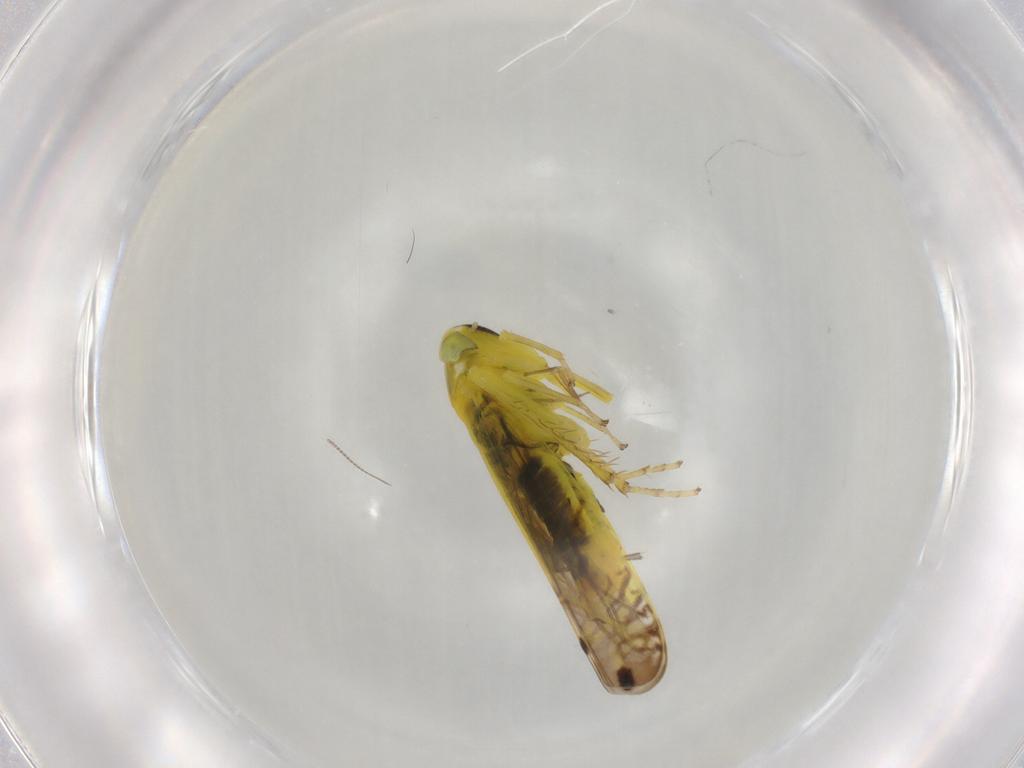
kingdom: Animalia
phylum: Arthropoda
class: Insecta
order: Hemiptera
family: Cicadellidae
